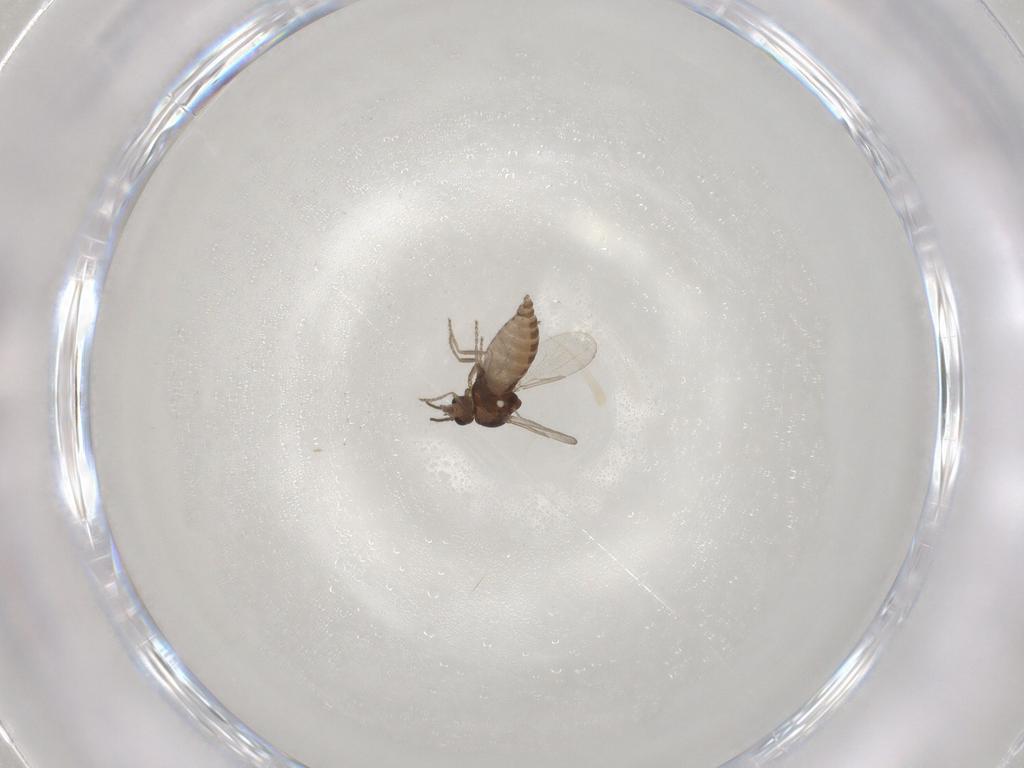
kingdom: Animalia
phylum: Arthropoda
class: Insecta
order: Diptera
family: Ceratopogonidae
